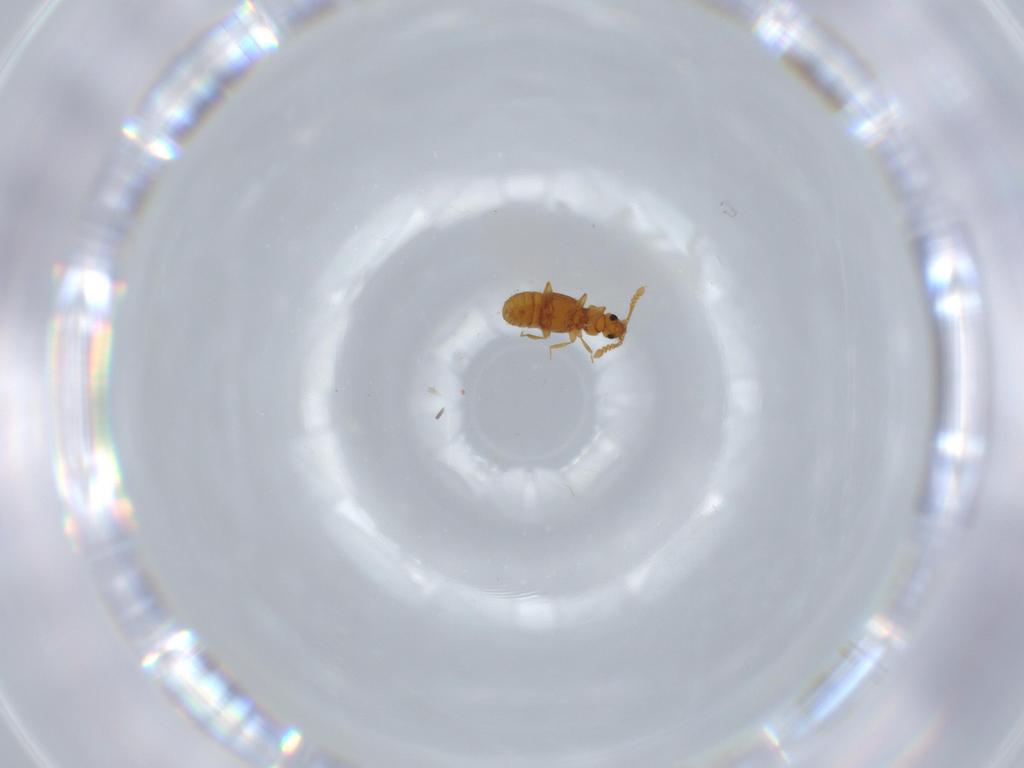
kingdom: Animalia
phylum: Arthropoda
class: Insecta
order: Coleoptera
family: Staphylinidae
